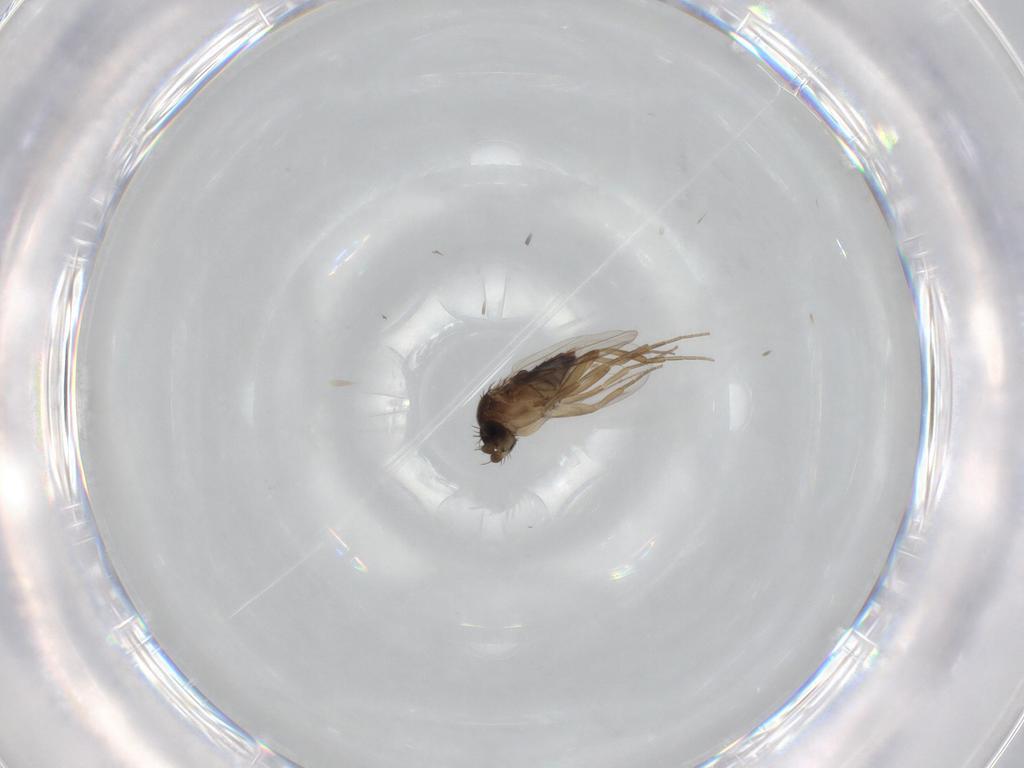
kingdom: Animalia
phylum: Arthropoda
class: Insecta
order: Diptera
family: Phoridae
